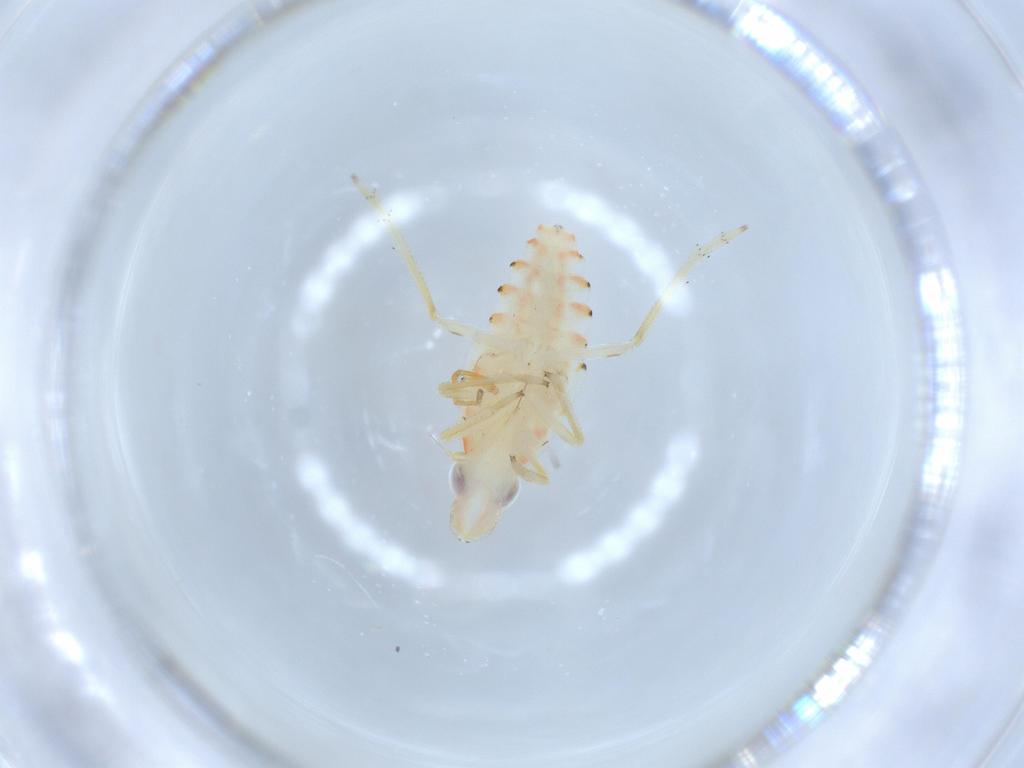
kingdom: Animalia
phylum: Arthropoda
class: Insecta
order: Hemiptera
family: Tropiduchidae
